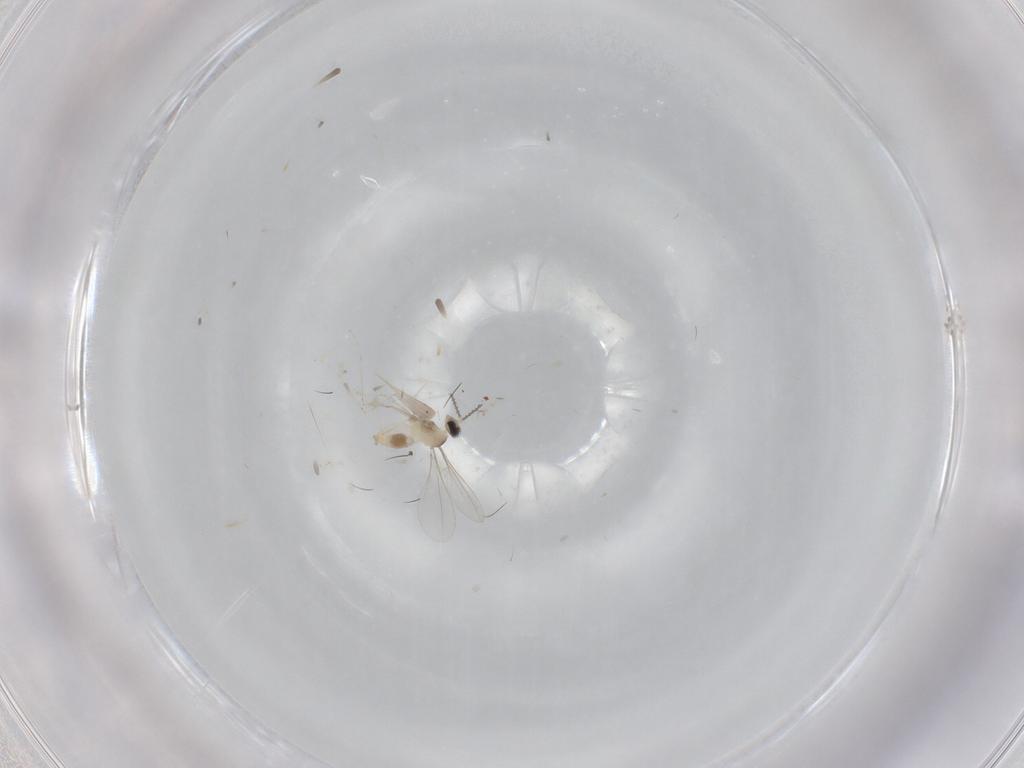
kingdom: Animalia
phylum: Arthropoda
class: Insecta
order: Diptera
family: Cecidomyiidae
